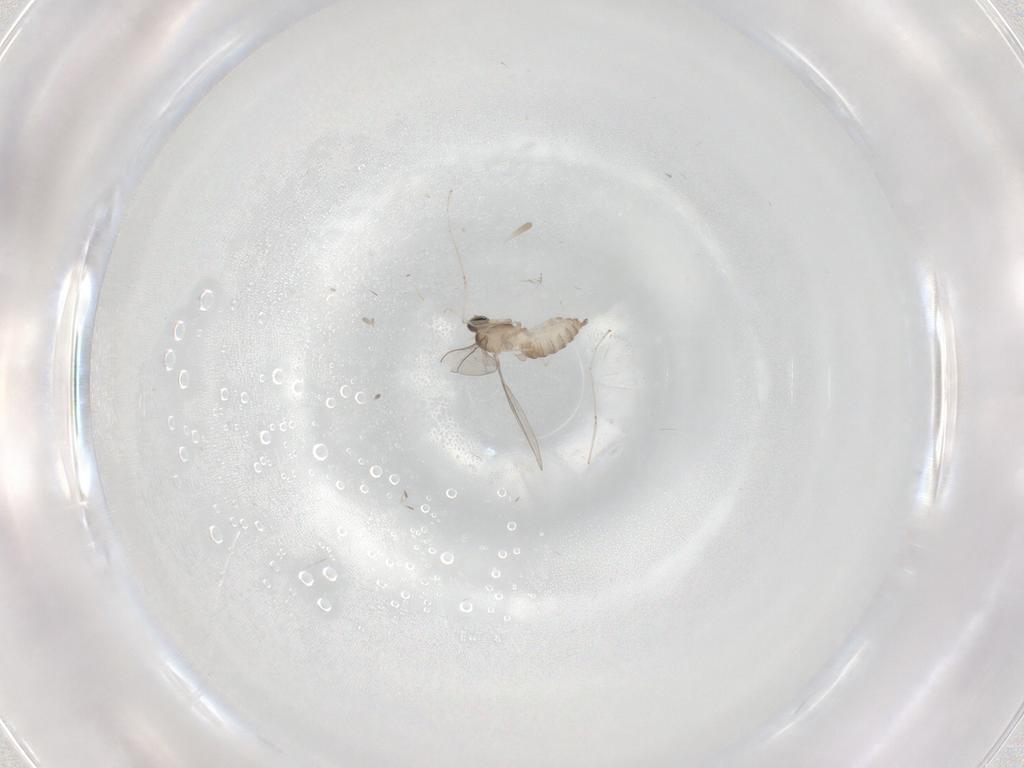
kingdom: Animalia
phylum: Arthropoda
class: Insecta
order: Diptera
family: Cecidomyiidae
